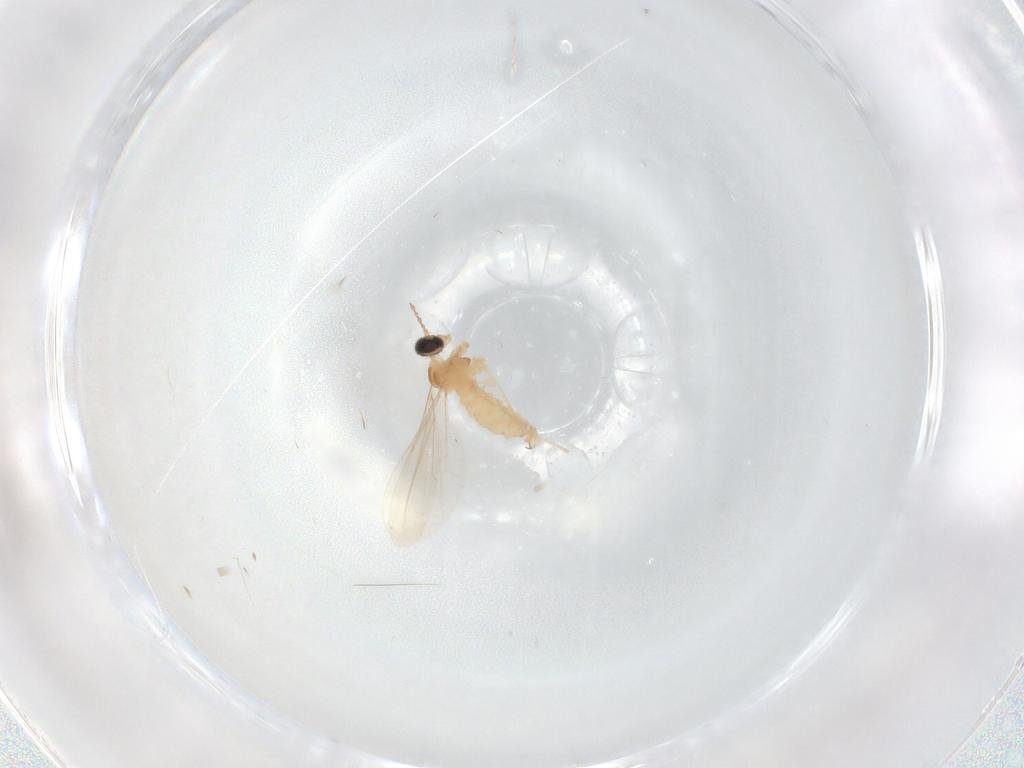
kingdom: Animalia
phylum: Arthropoda
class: Insecta
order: Diptera
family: Cecidomyiidae
